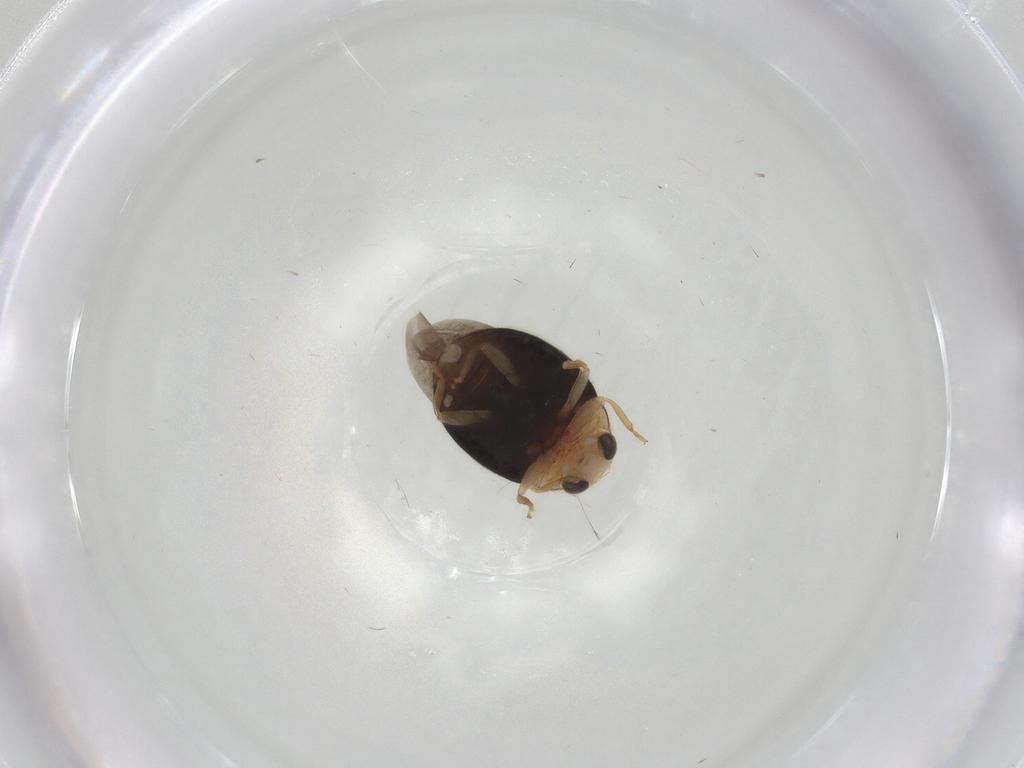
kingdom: Animalia
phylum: Arthropoda
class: Insecta
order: Coleoptera
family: Coccinellidae
